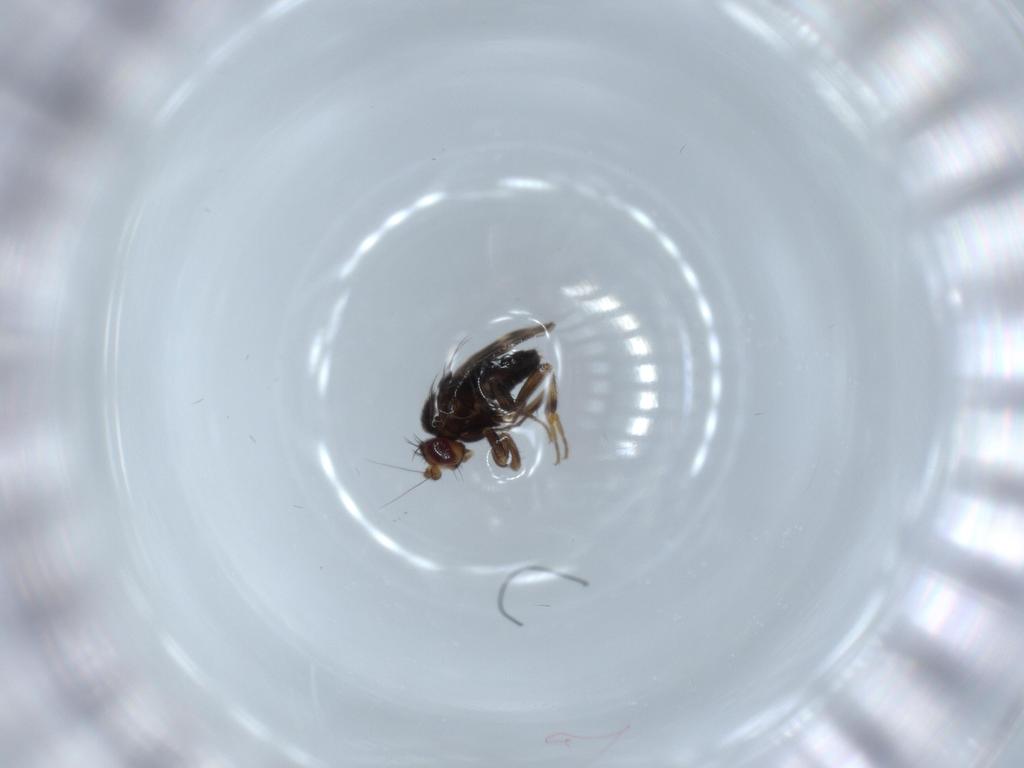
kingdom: Animalia
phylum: Arthropoda
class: Insecta
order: Diptera
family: Sphaeroceridae
